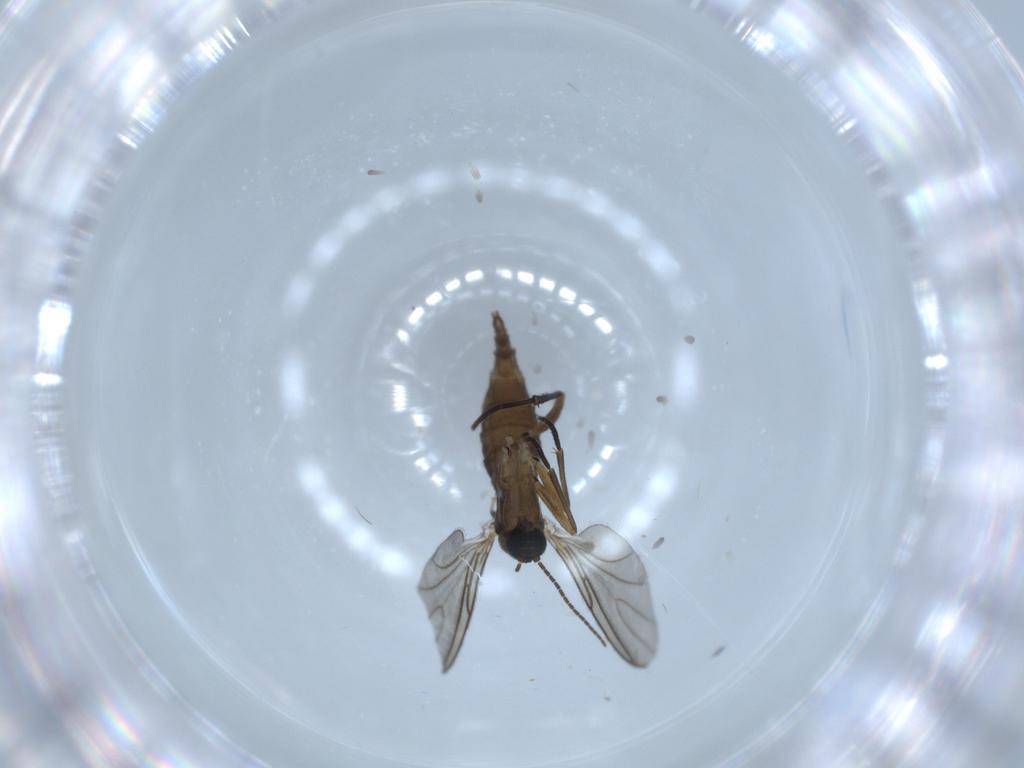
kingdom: Animalia
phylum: Arthropoda
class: Insecta
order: Diptera
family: Sciaridae
